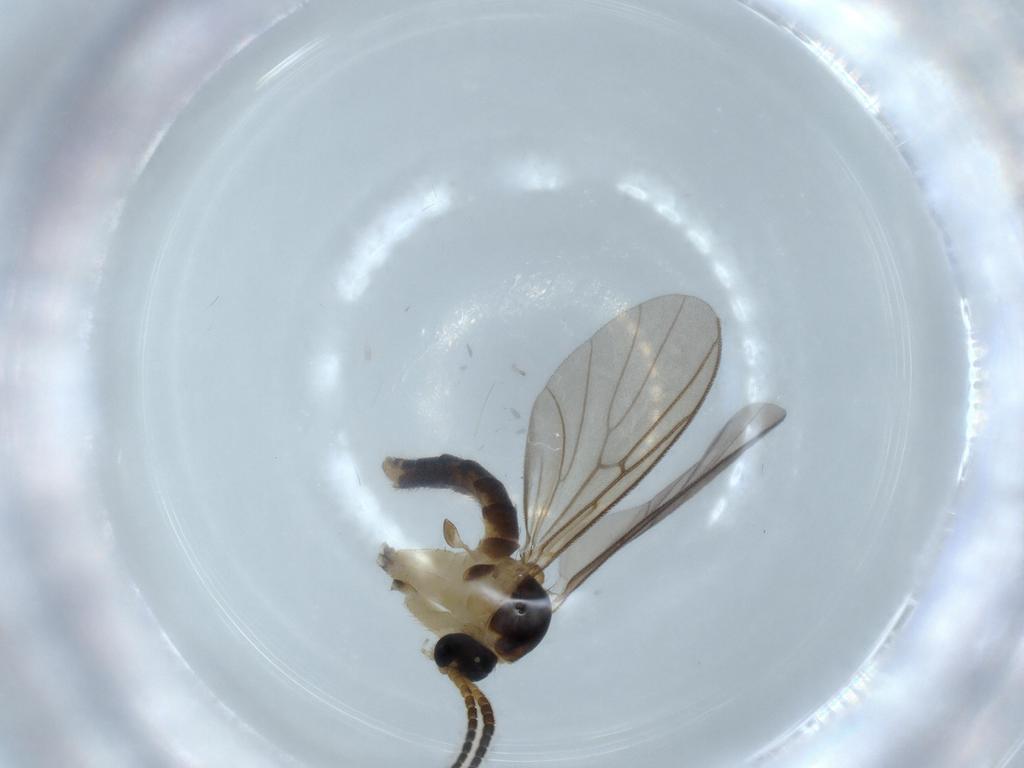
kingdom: Animalia
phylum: Arthropoda
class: Insecta
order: Diptera
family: Mycetophilidae
